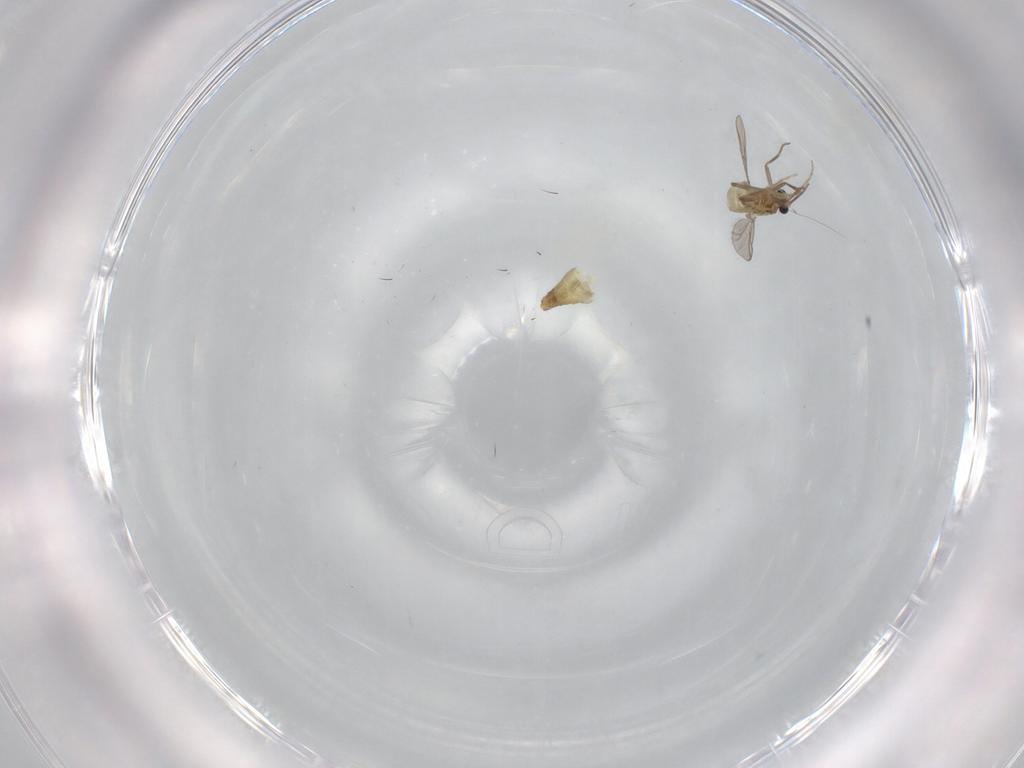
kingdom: Animalia
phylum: Arthropoda
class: Insecta
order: Diptera
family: Chironomidae
